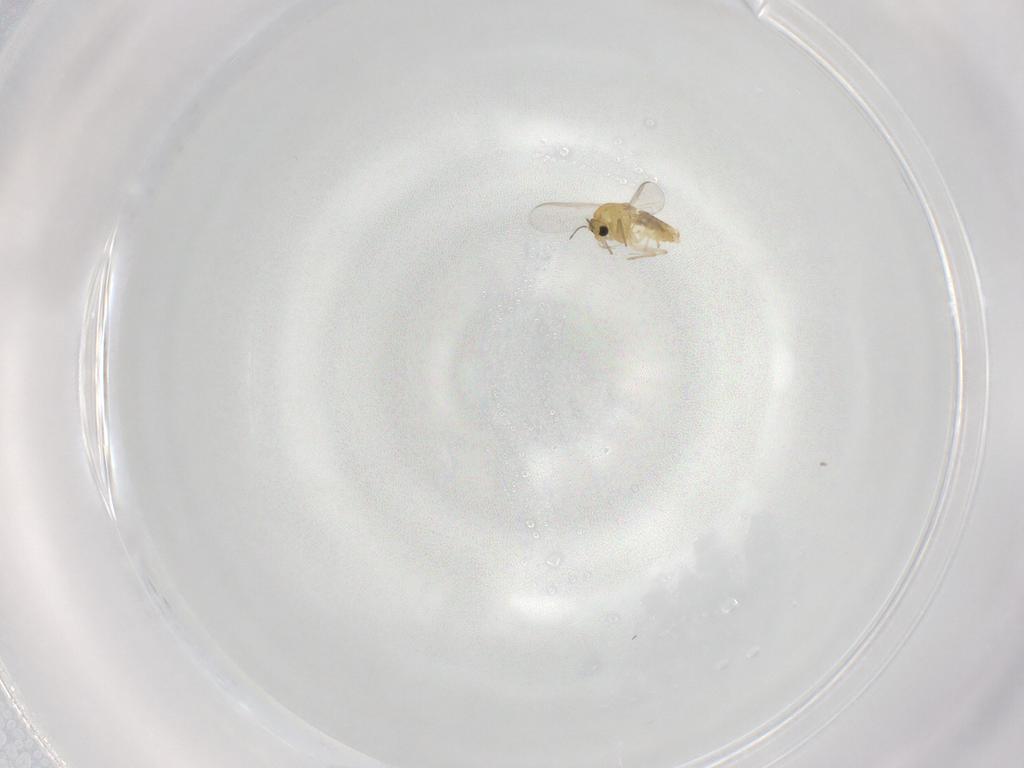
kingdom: Animalia
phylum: Arthropoda
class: Insecta
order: Diptera
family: Chironomidae
